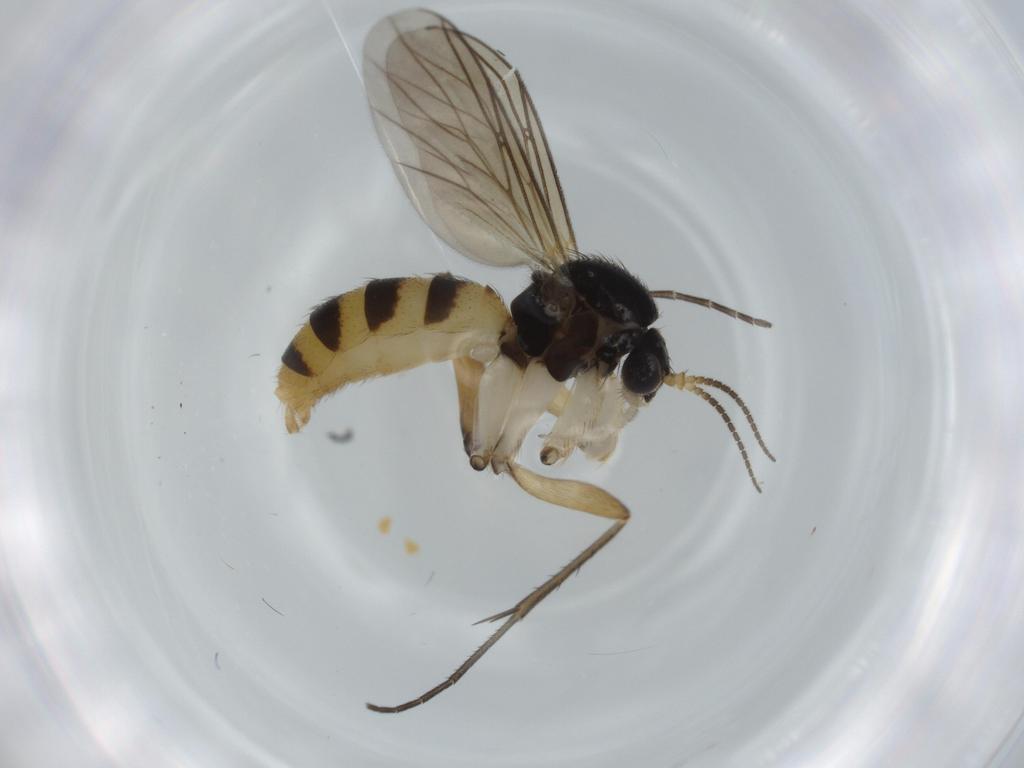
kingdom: Animalia
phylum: Arthropoda
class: Insecta
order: Diptera
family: Mycetophilidae
